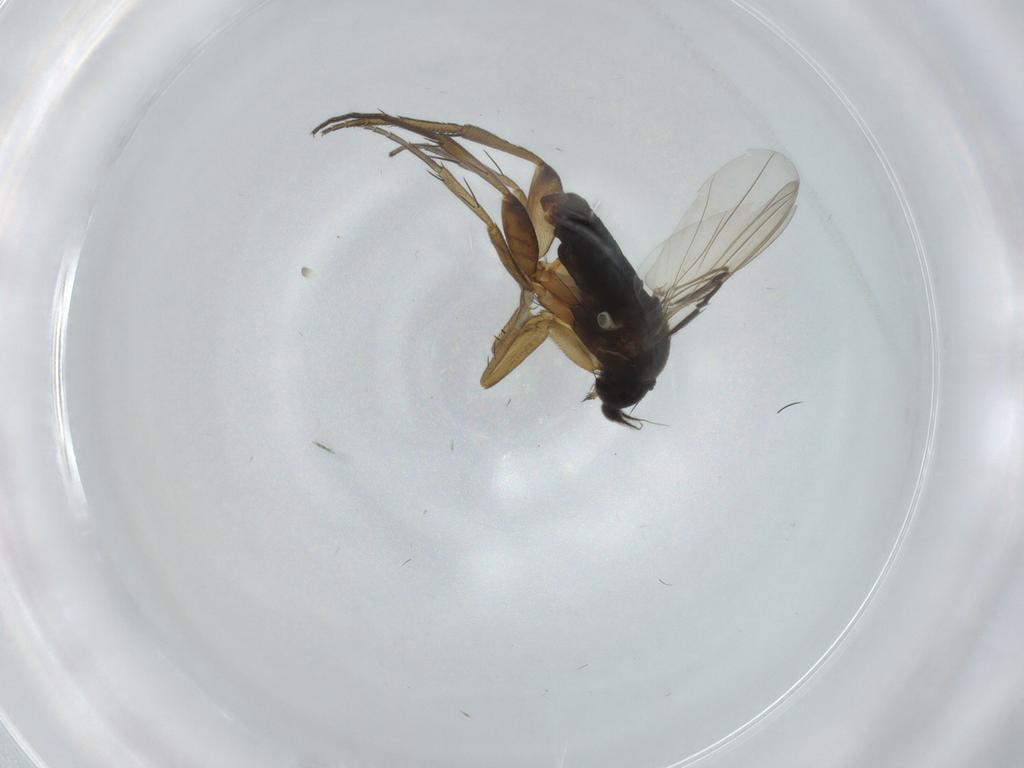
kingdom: Animalia
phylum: Arthropoda
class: Insecta
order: Diptera
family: Phoridae
